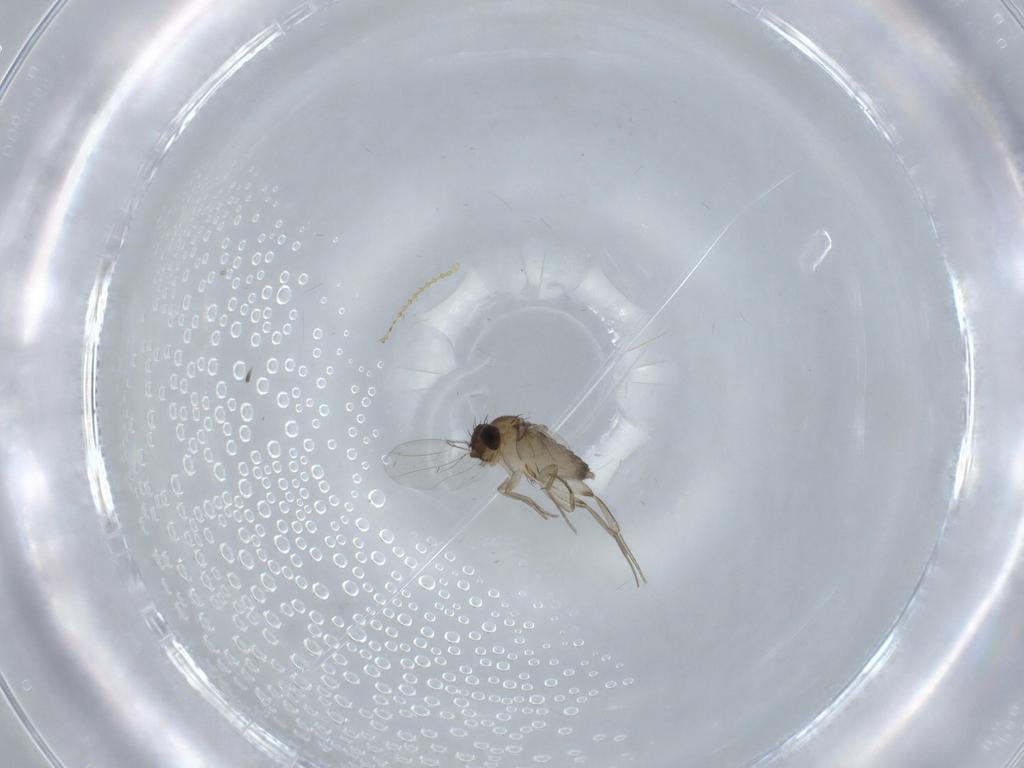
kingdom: Animalia
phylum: Arthropoda
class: Insecta
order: Diptera
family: Phoridae
